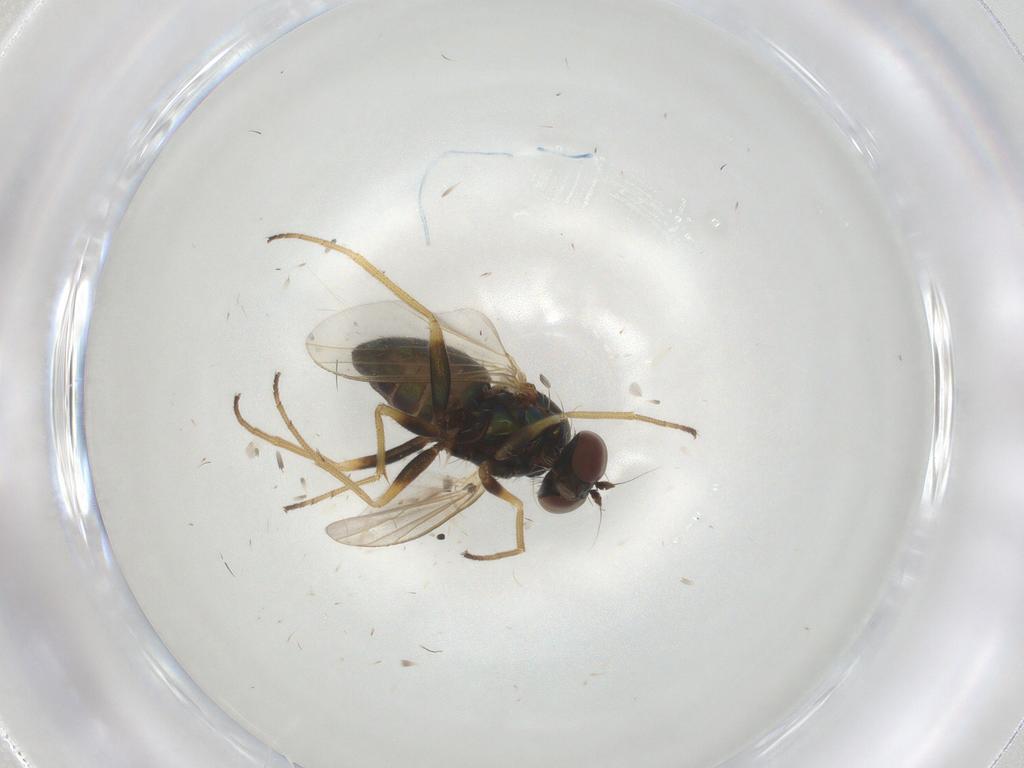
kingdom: Animalia
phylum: Arthropoda
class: Insecta
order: Diptera
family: Dolichopodidae
